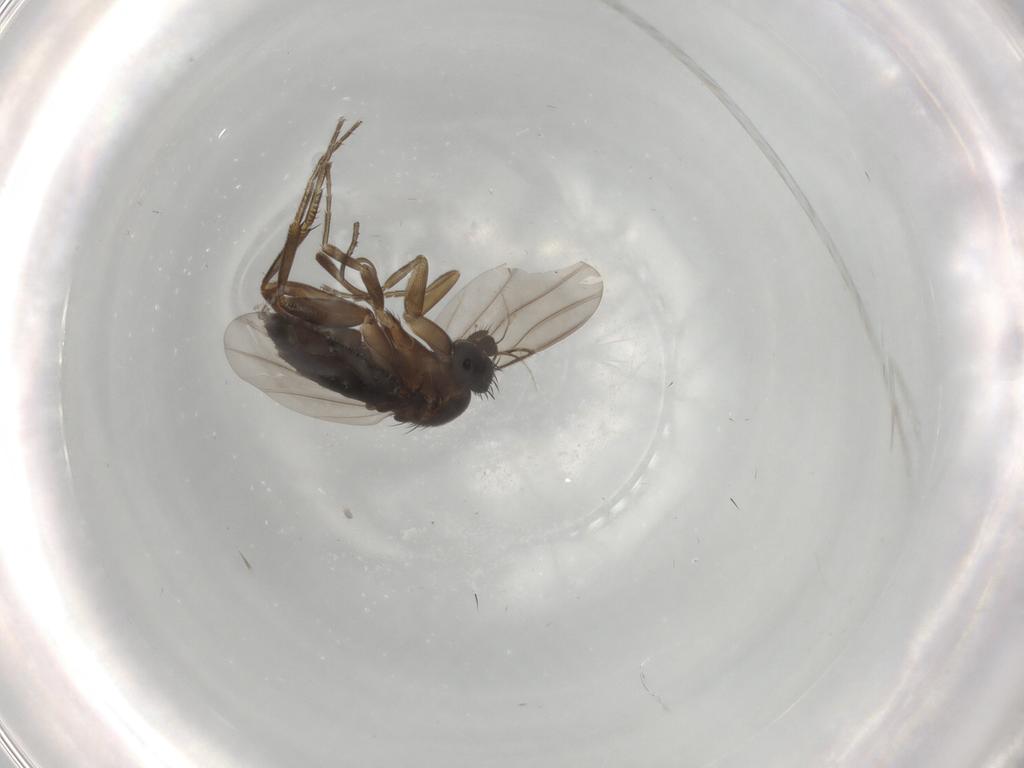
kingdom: Animalia
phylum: Arthropoda
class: Insecta
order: Diptera
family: Phoridae
